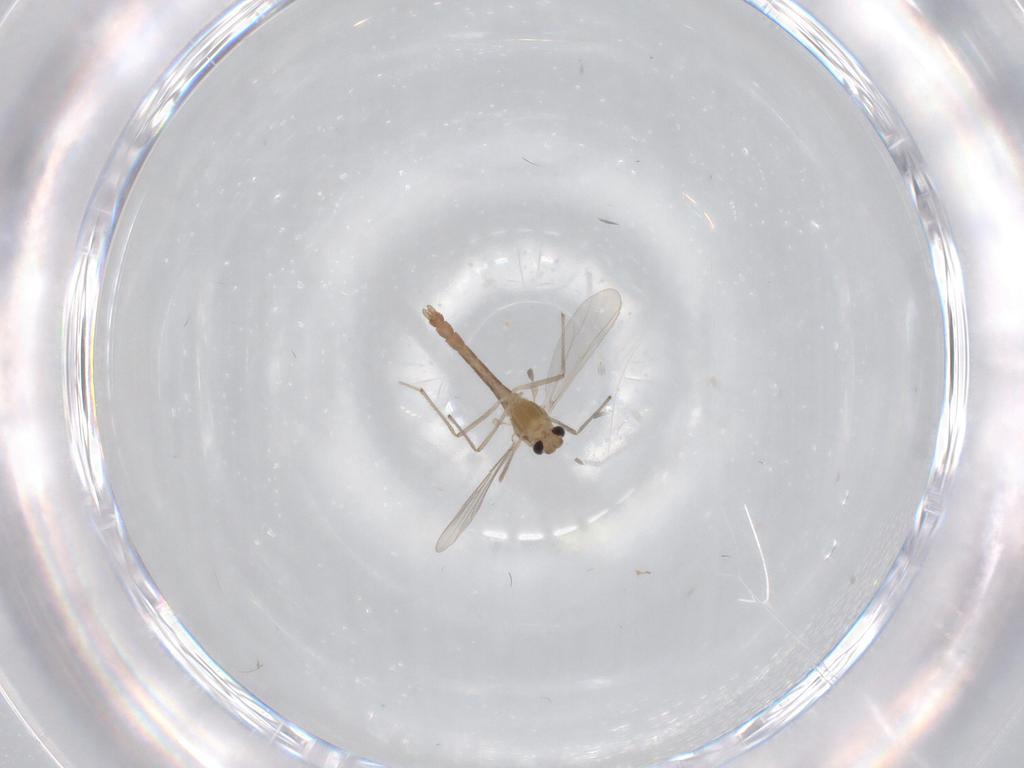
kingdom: Animalia
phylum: Arthropoda
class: Insecta
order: Diptera
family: Chironomidae
